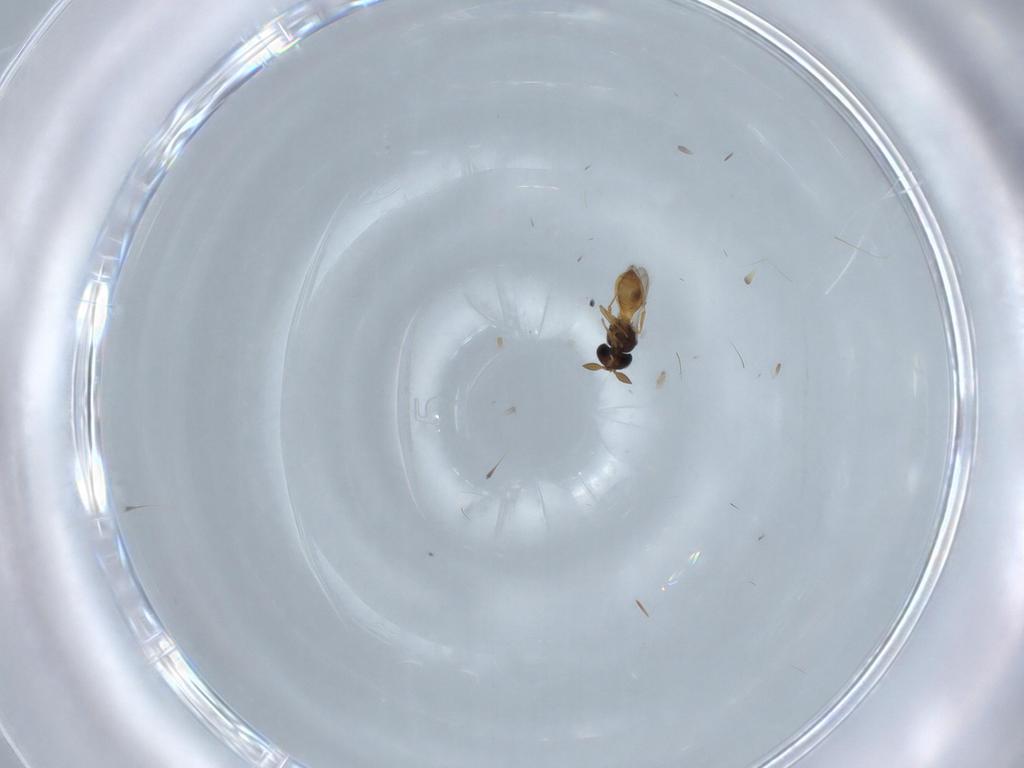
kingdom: Animalia
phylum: Arthropoda
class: Insecta
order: Hymenoptera
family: Scelionidae
